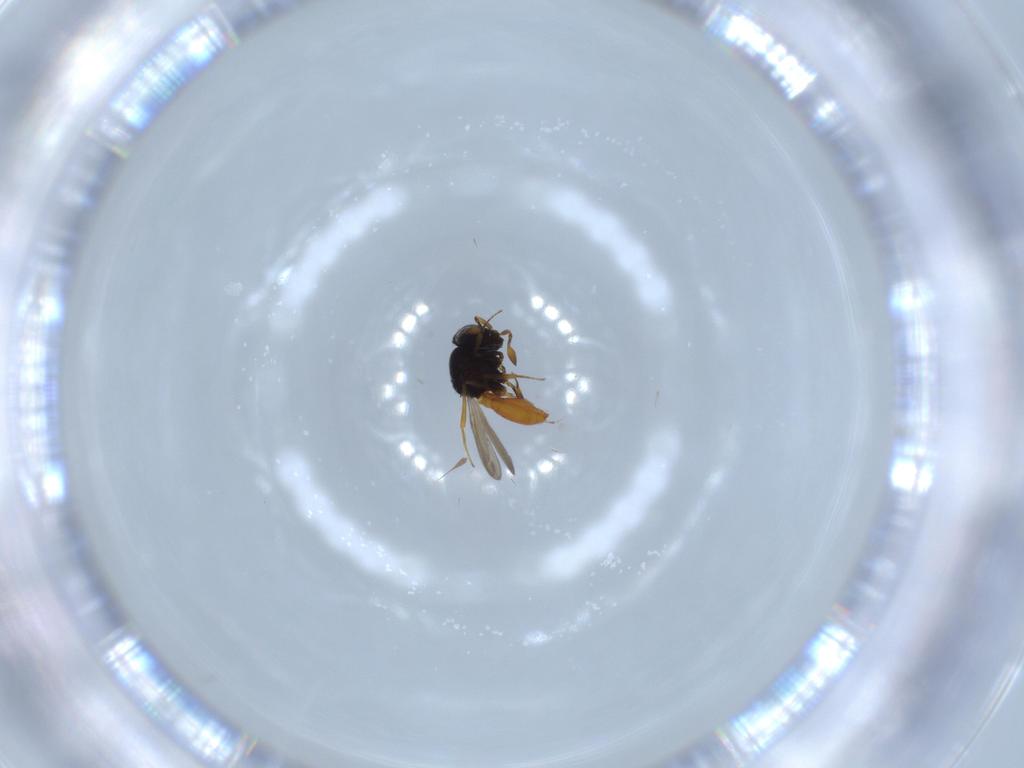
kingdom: Animalia
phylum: Arthropoda
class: Insecta
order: Hymenoptera
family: Scelionidae
